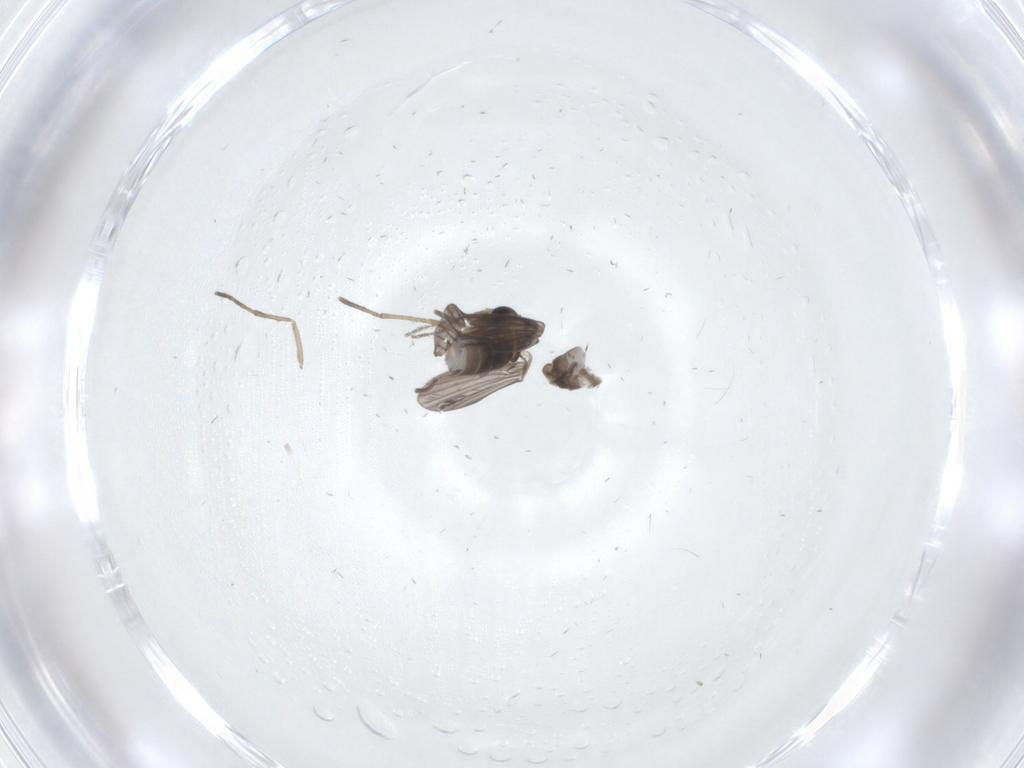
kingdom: Animalia
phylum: Arthropoda
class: Insecta
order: Diptera
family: Cecidomyiidae
